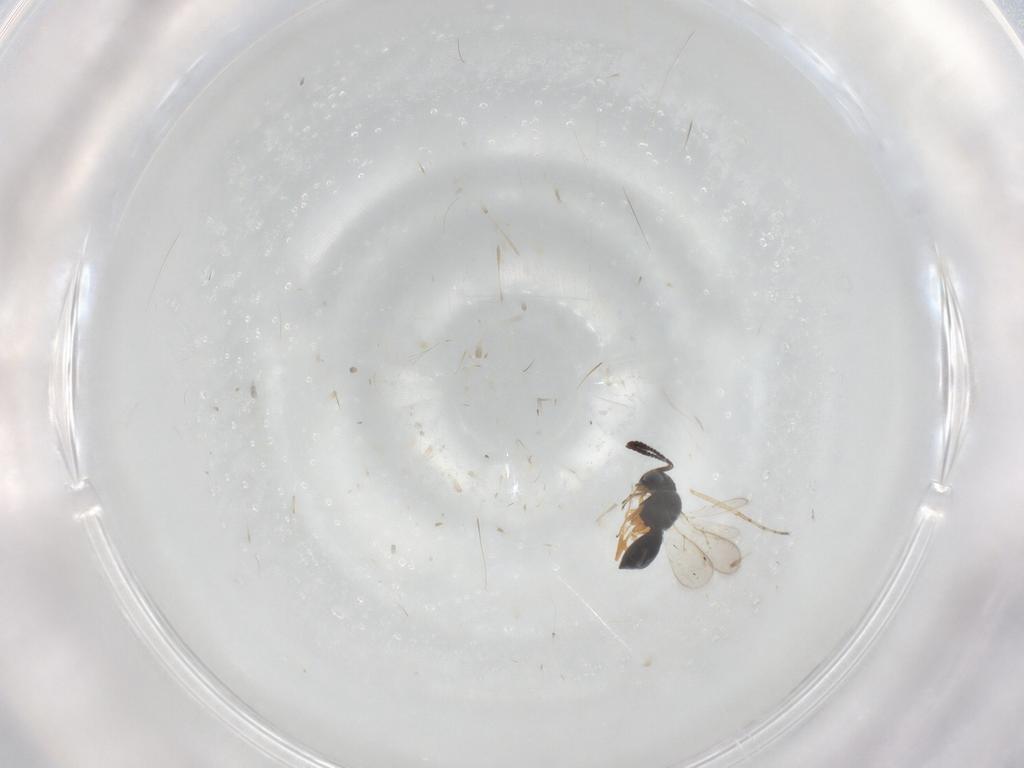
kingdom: Animalia
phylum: Arthropoda
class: Insecta
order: Hymenoptera
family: Scelionidae
